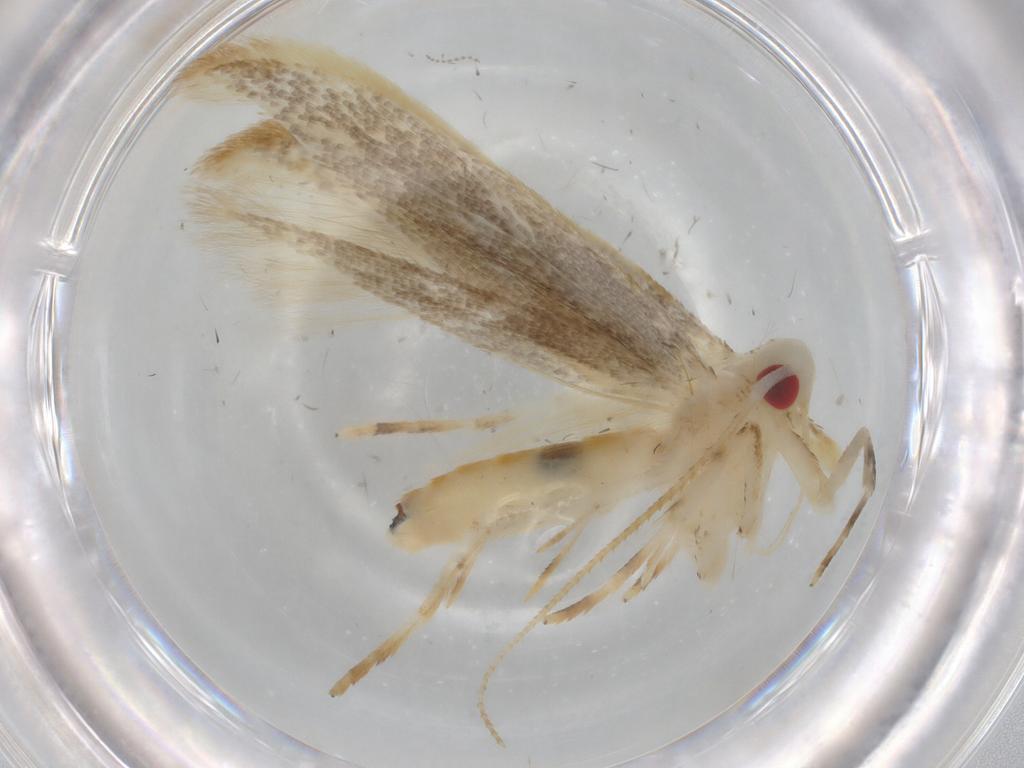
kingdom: Animalia
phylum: Arthropoda
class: Insecta
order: Lepidoptera
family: Cosmopterigidae
